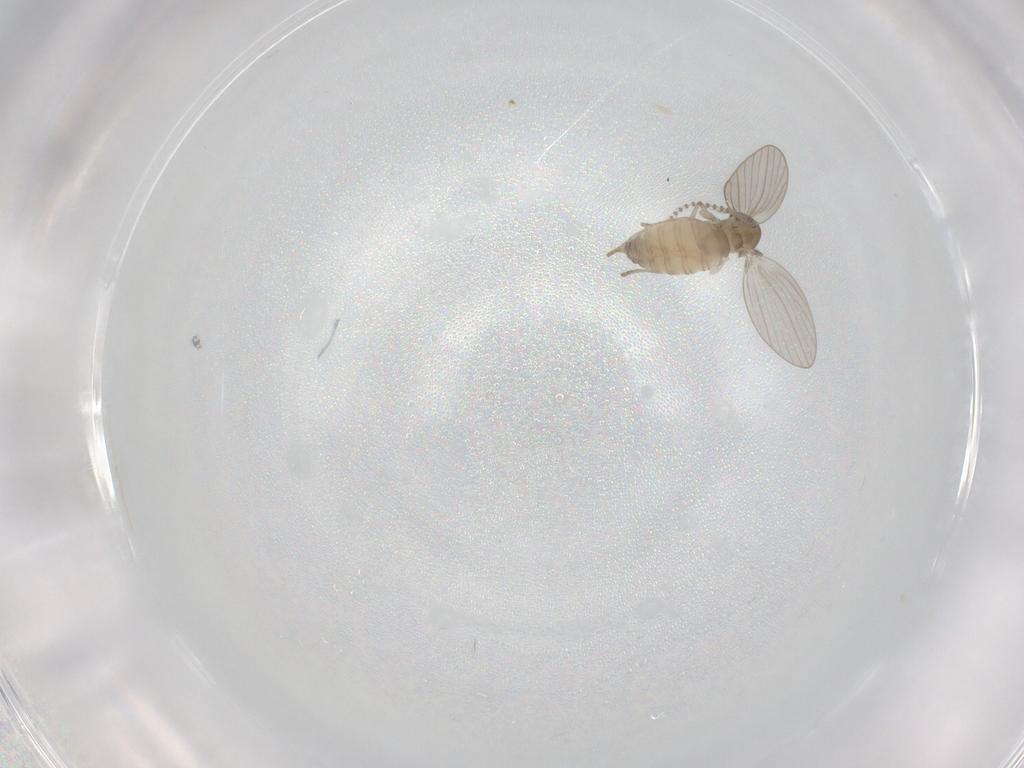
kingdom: Animalia
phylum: Arthropoda
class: Insecta
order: Diptera
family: Psychodidae
